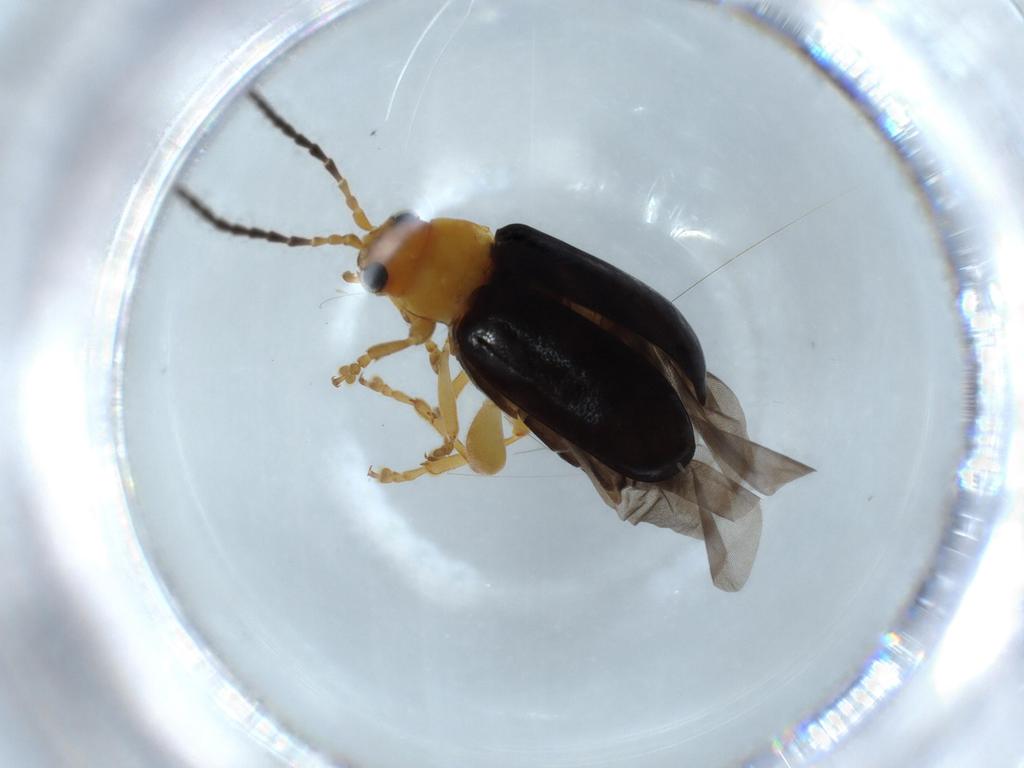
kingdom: Animalia
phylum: Arthropoda
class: Insecta
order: Coleoptera
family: Chrysomelidae
